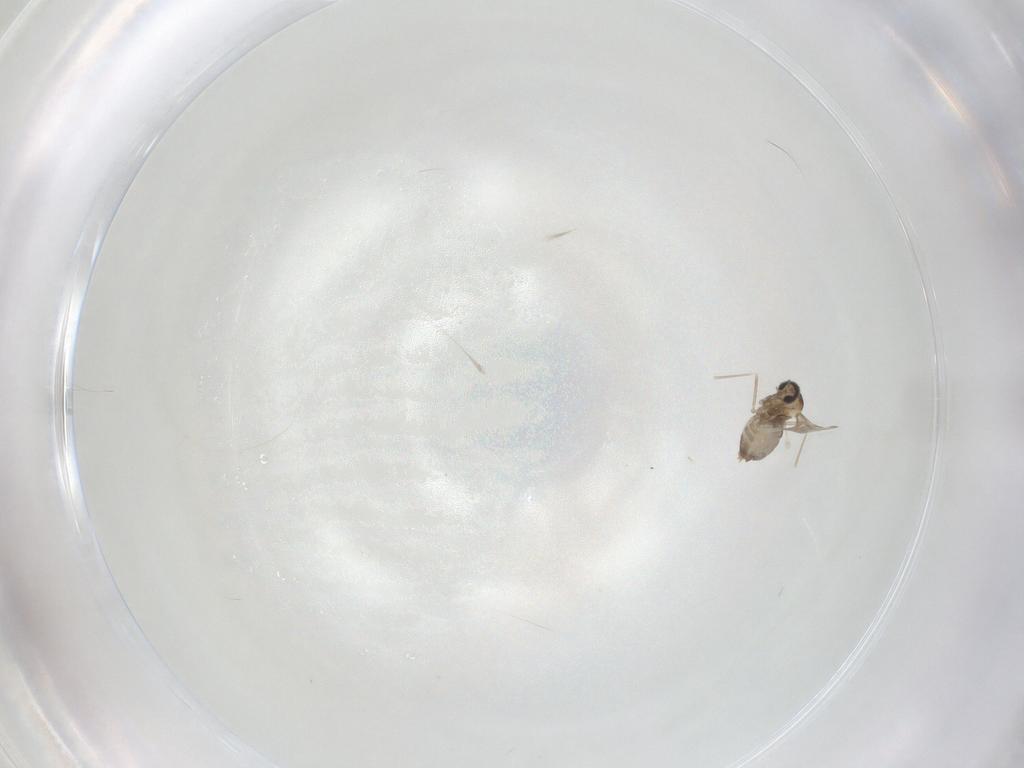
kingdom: Animalia
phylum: Arthropoda
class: Insecta
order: Diptera
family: Cecidomyiidae
